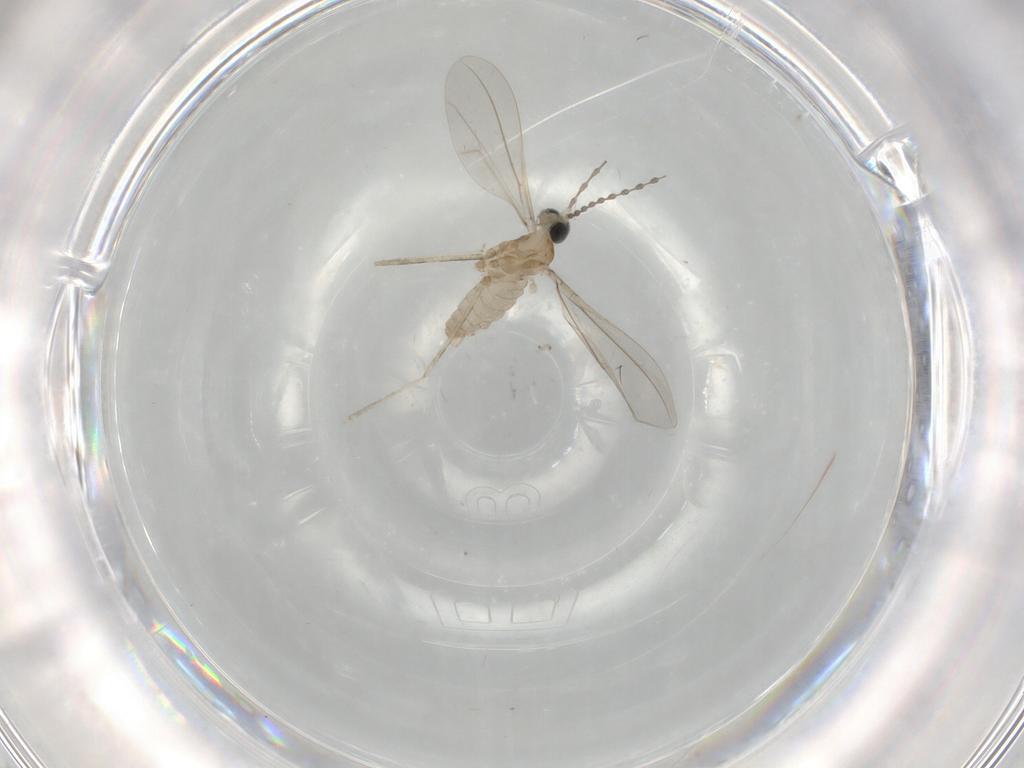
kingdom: Animalia
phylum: Arthropoda
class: Insecta
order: Diptera
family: Cecidomyiidae
